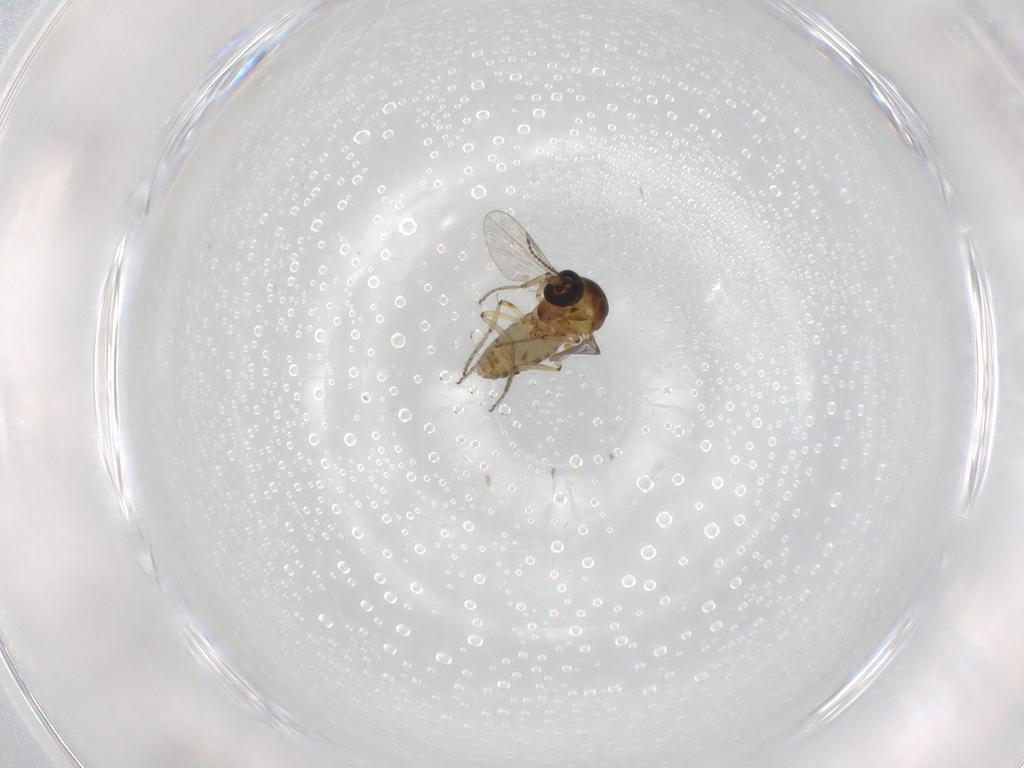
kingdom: Animalia
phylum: Arthropoda
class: Insecta
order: Diptera
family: Ceratopogonidae
